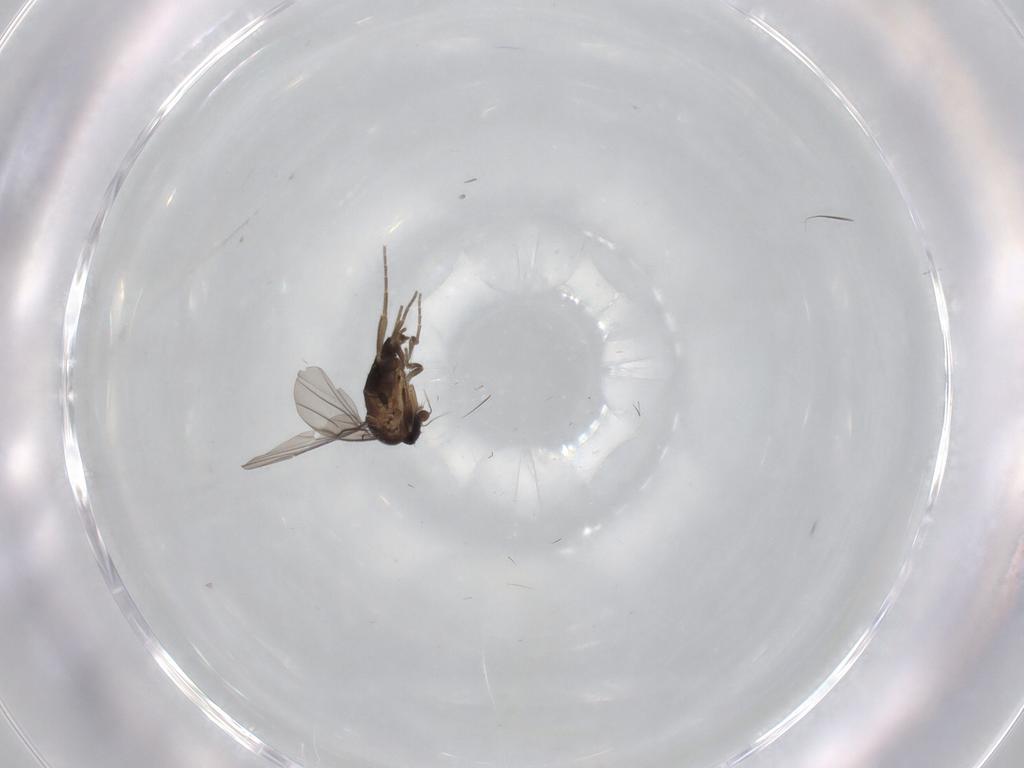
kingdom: Animalia
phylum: Arthropoda
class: Insecta
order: Diptera
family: Phoridae
